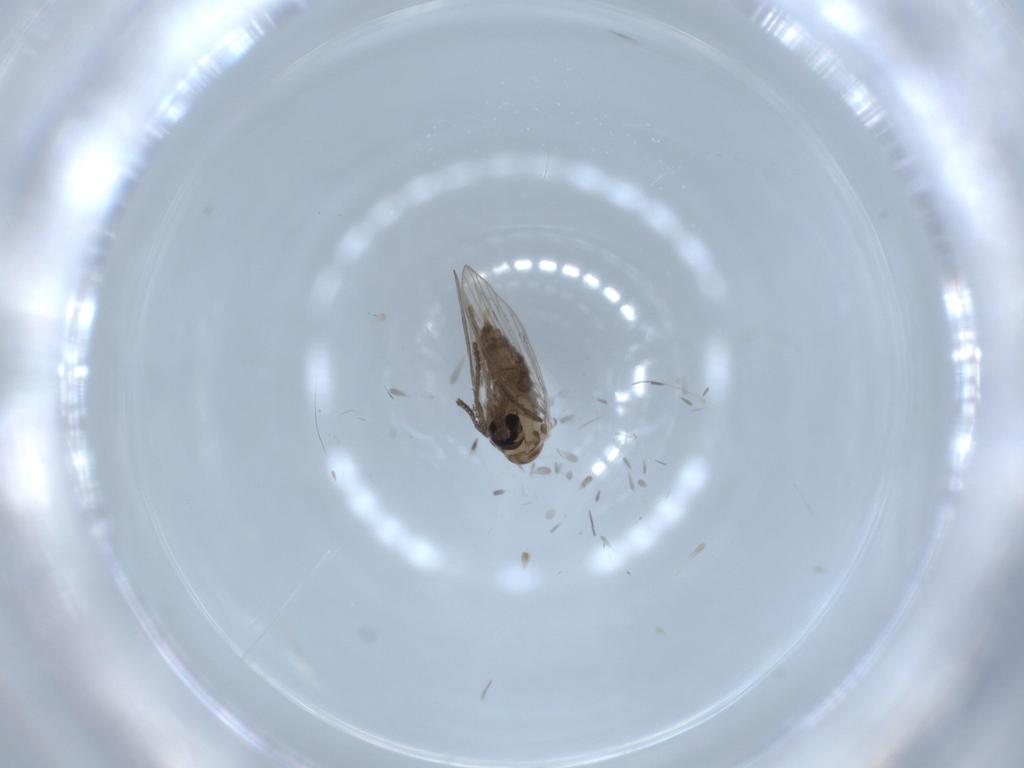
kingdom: Animalia
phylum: Arthropoda
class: Insecta
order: Diptera
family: Psychodidae
